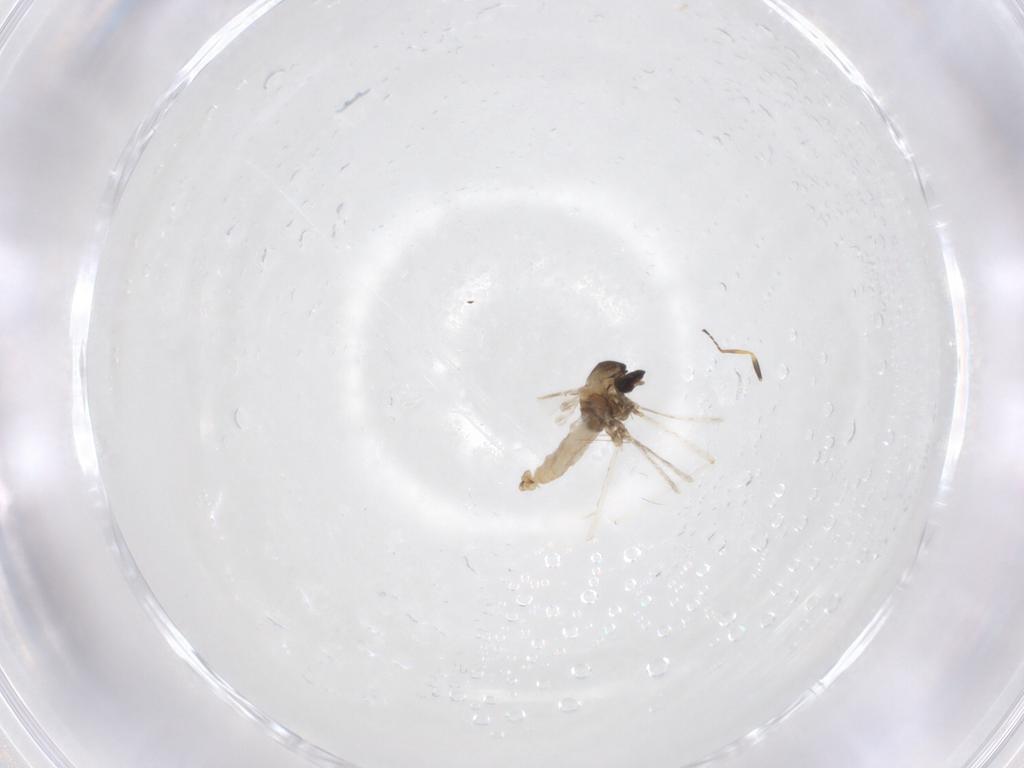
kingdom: Animalia
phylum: Arthropoda
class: Insecta
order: Diptera
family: Cecidomyiidae
